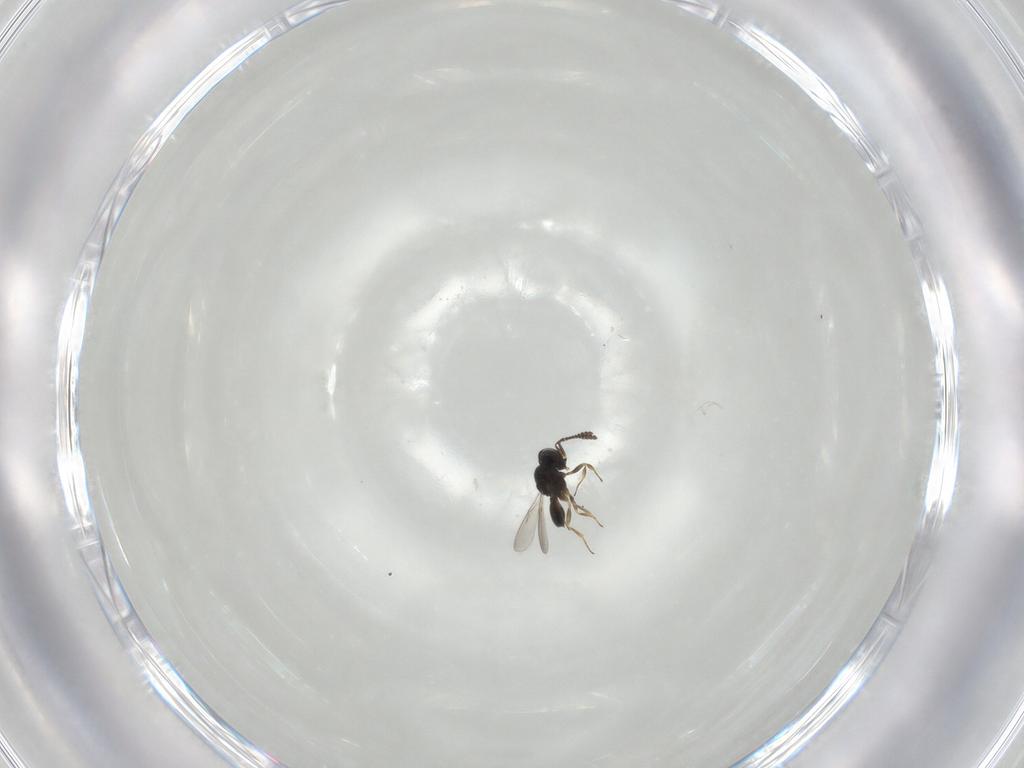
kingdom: Animalia
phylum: Arthropoda
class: Insecta
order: Hymenoptera
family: Scelionidae
